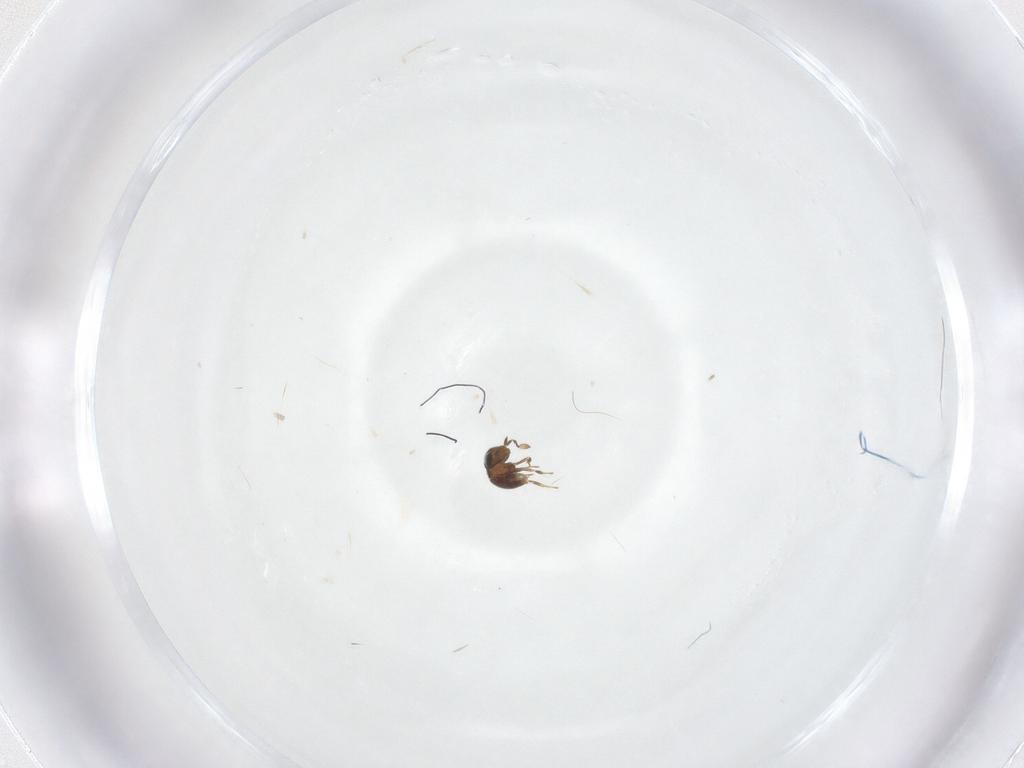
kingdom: Animalia
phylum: Arthropoda
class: Insecta
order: Hymenoptera
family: Scelionidae
